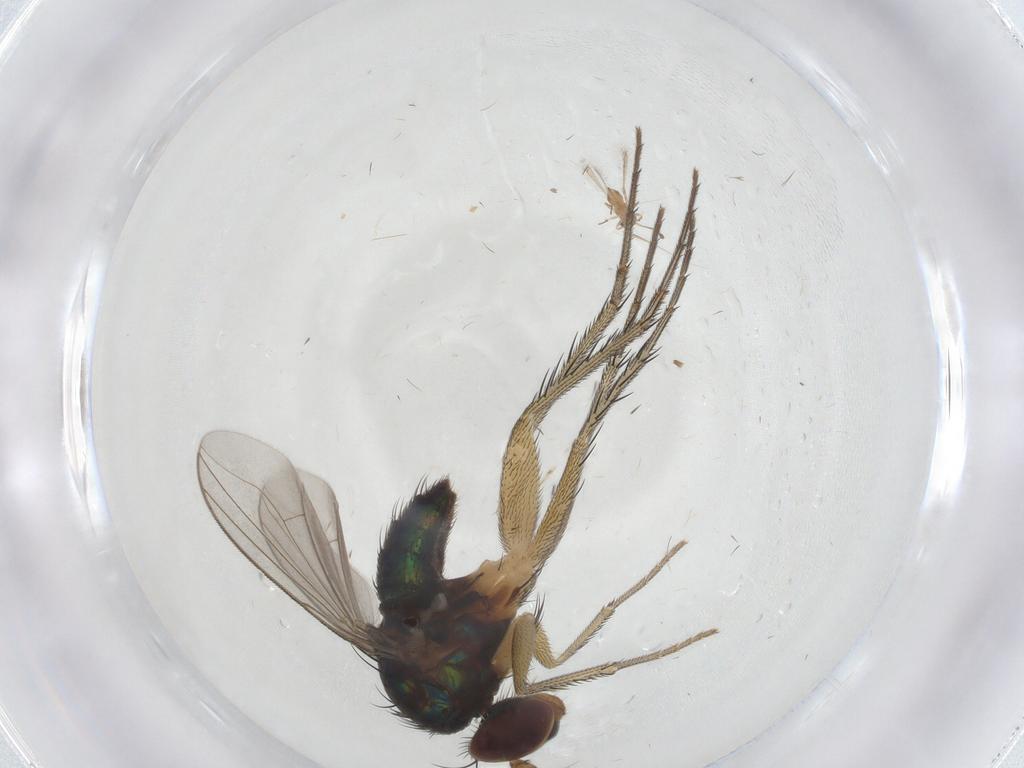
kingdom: Animalia
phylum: Arthropoda
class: Insecta
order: Diptera
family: Dolichopodidae
